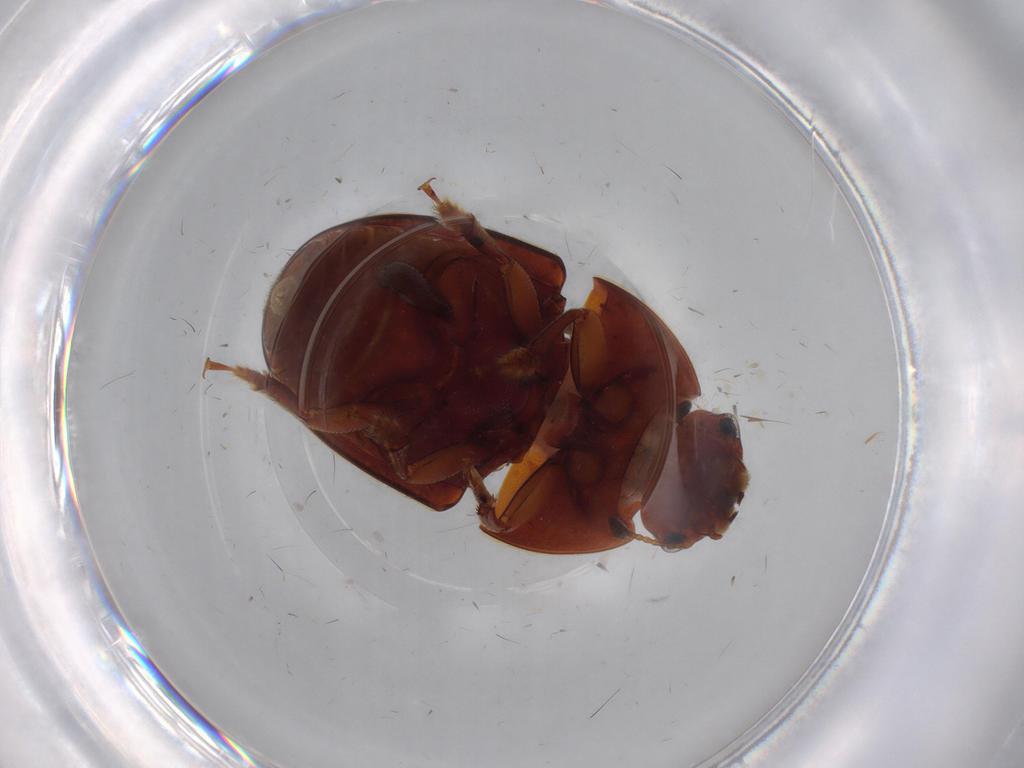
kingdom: Animalia
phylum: Arthropoda
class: Insecta
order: Coleoptera
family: Nitidulidae
